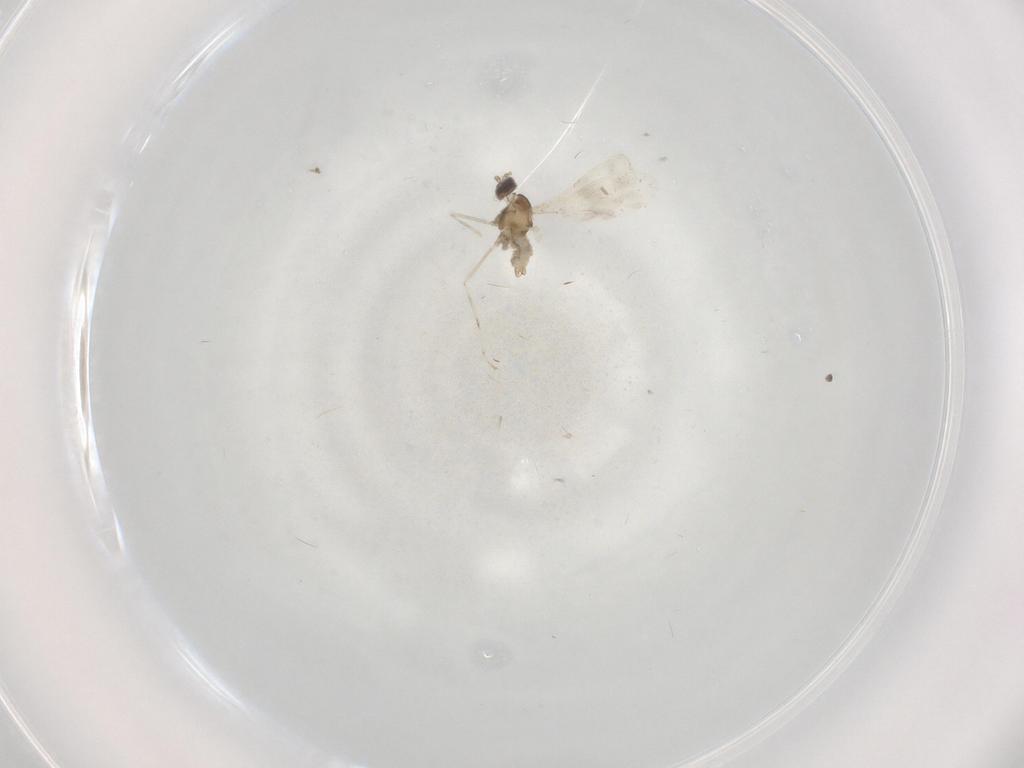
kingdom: Animalia
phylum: Arthropoda
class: Insecta
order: Diptera
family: Cecidomyiidae
